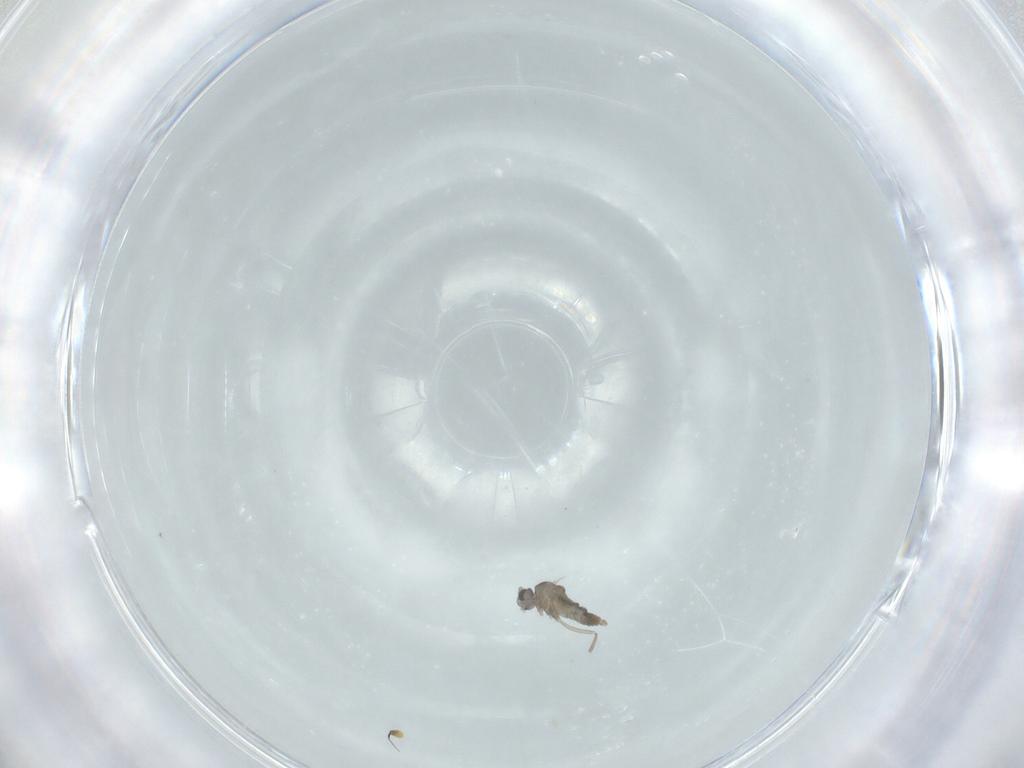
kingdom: Animalia
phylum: Arthropoda
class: Insecta
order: Diptera
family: Cecidomyiidae
